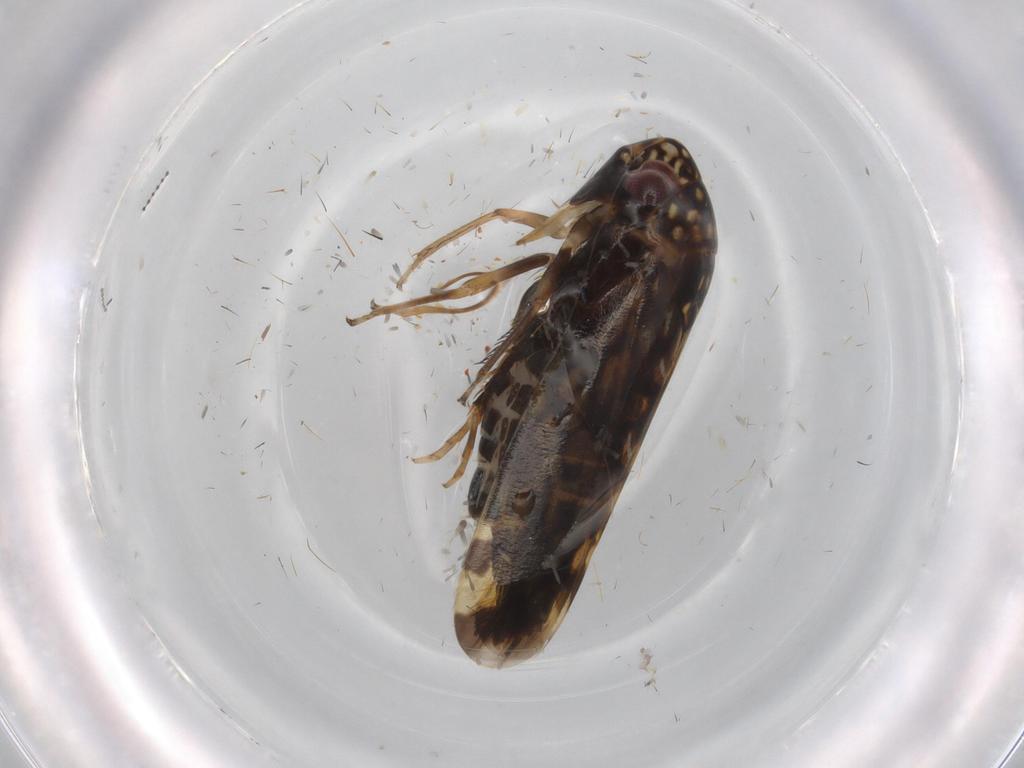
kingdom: Animalia
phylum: Arthropoda
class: Insecta
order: Hemiptera
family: Cicadellidae
